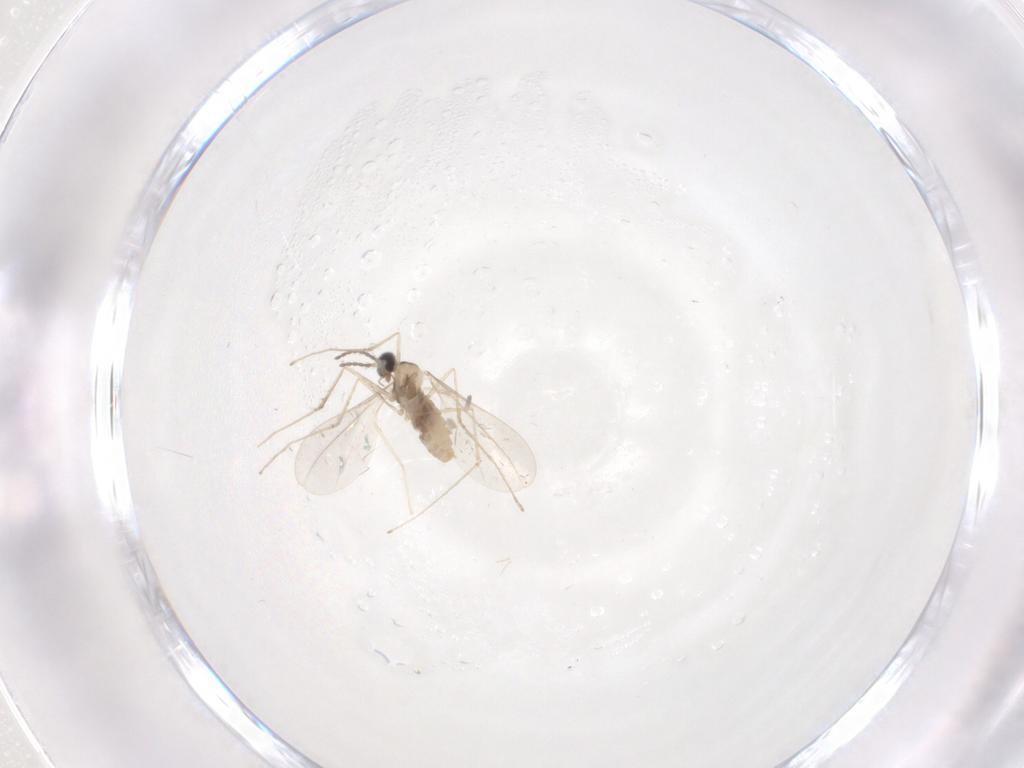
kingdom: Animalia
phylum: Arthropoda
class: Insecta
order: Diptera
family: Cecidomyiidae
